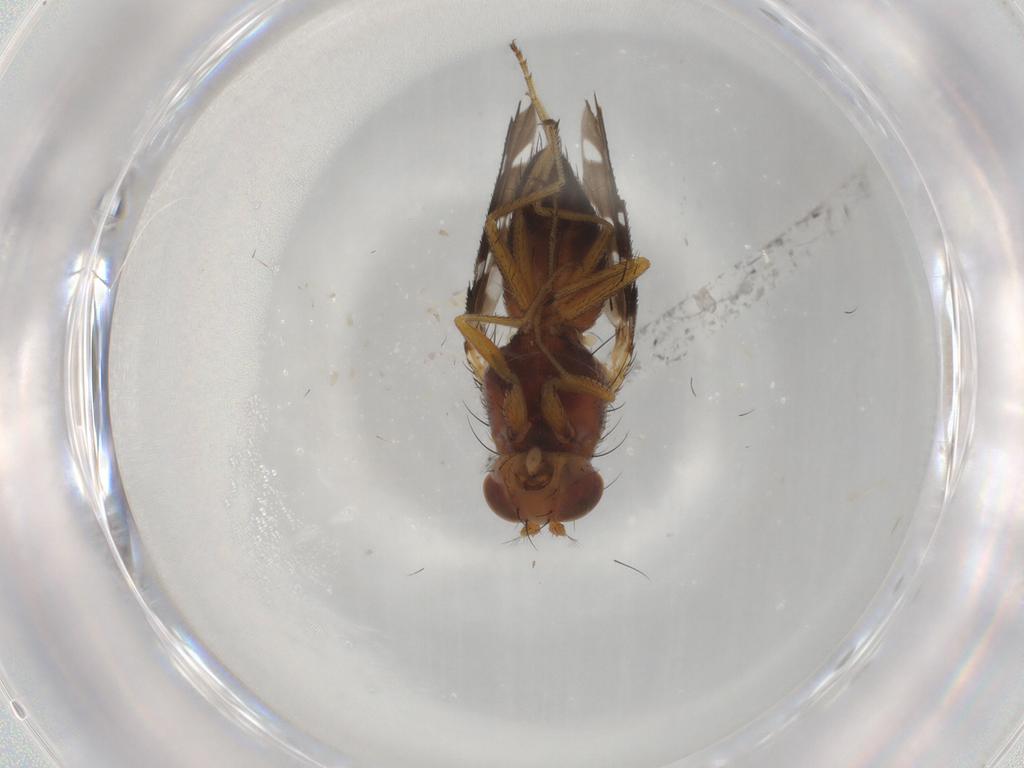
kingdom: Animalia
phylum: Arthropoda
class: Insecta
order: Diptera
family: Ephydridae
